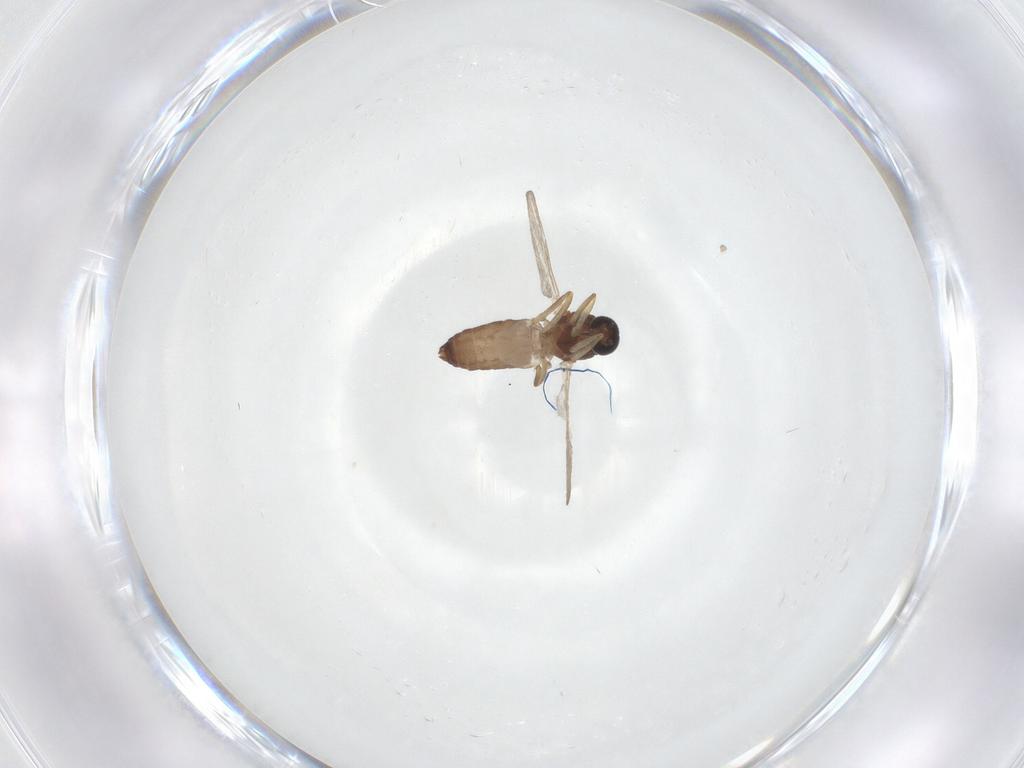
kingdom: Animalia
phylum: Arthropoda
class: Insecta
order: Diptera
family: Ceratopogonidae
